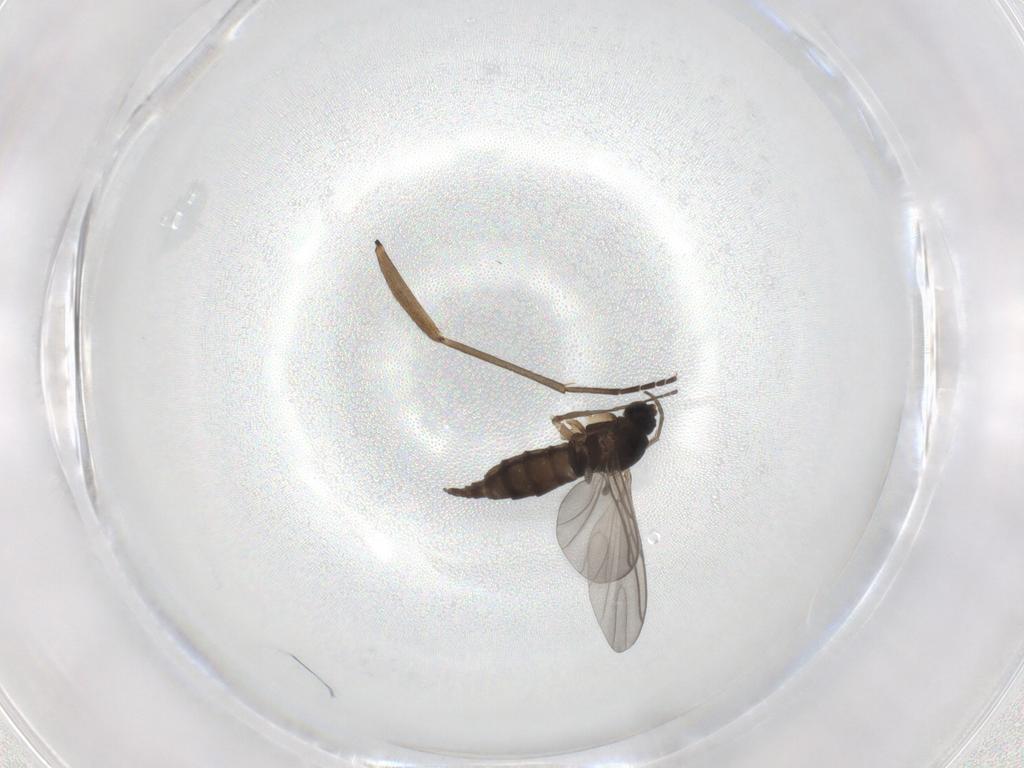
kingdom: Animalia
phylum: Arthropoda
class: Insecta
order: Diptera
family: Sciaridae
